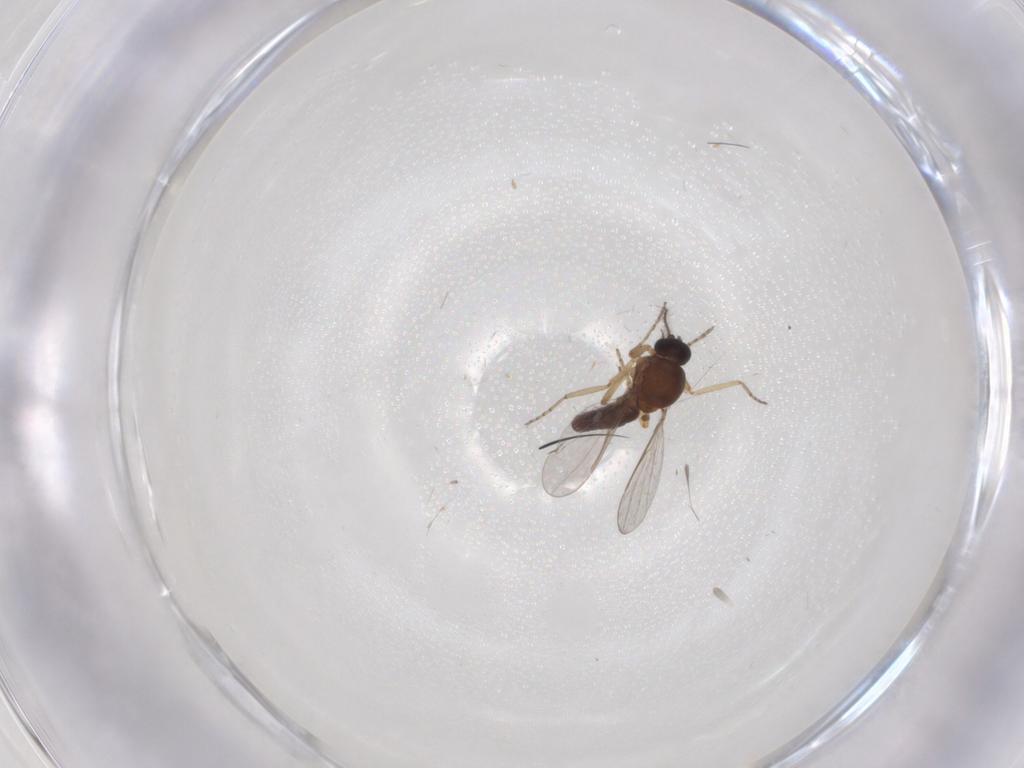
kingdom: Animalia
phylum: Arthropoda
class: Insecta
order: Diptera
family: Ceratopogonidae
